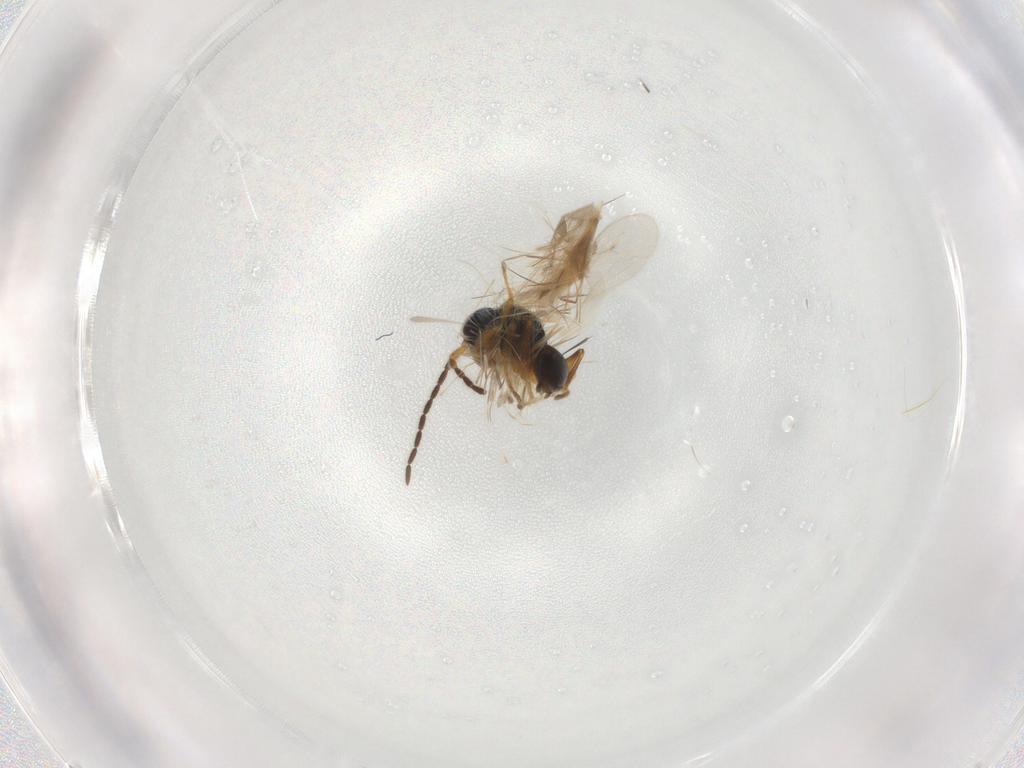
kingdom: Animalia
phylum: Arthropoda
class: Insecta
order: Hymenoptera
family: Dryinidae
